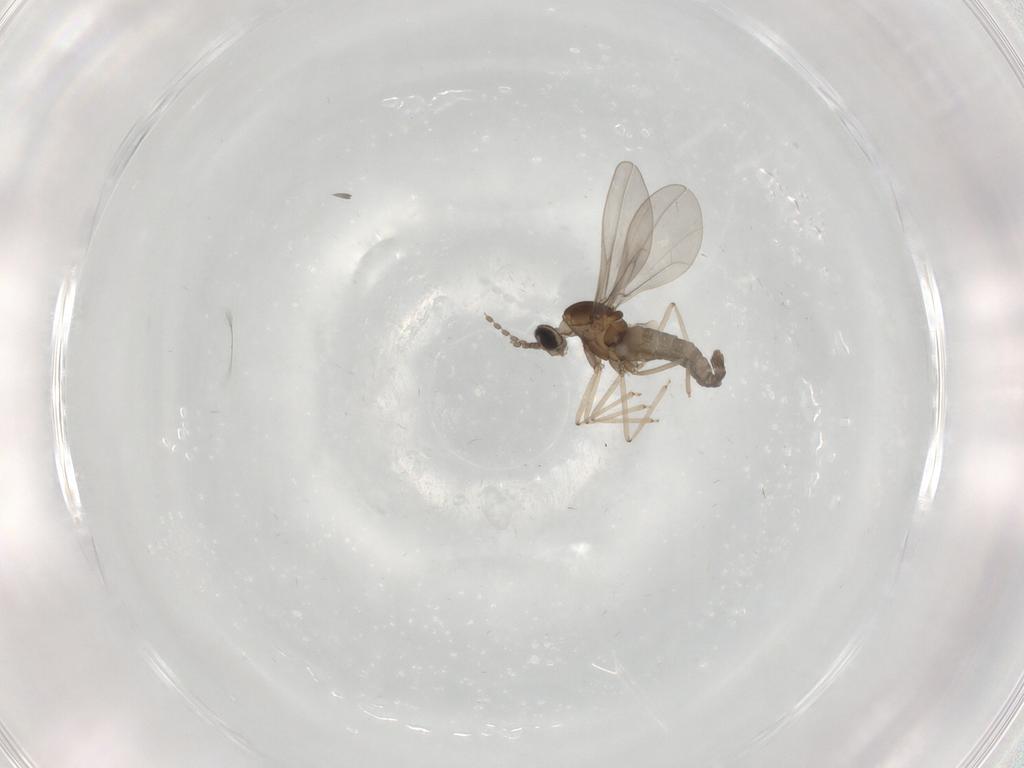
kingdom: Animalia
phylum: Arthropoda
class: Insecta
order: Diptera
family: Cecidomyiidae
